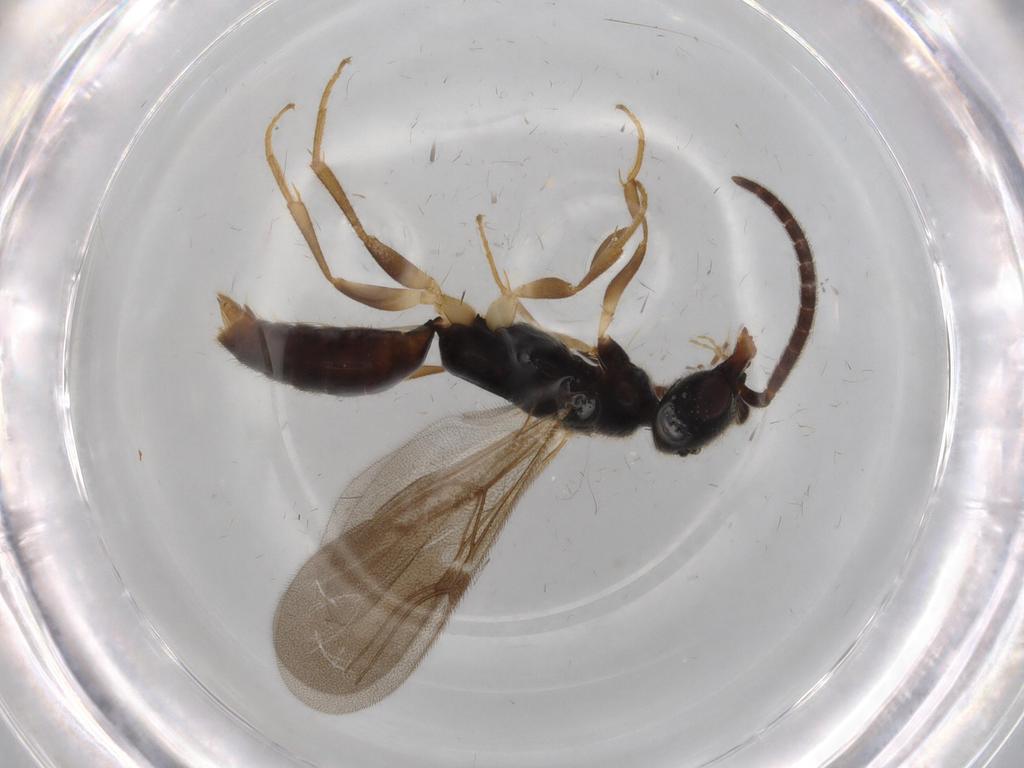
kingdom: Animalia
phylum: Arthropoda
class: Insecta
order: Hymenoptera
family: Bethylidae
